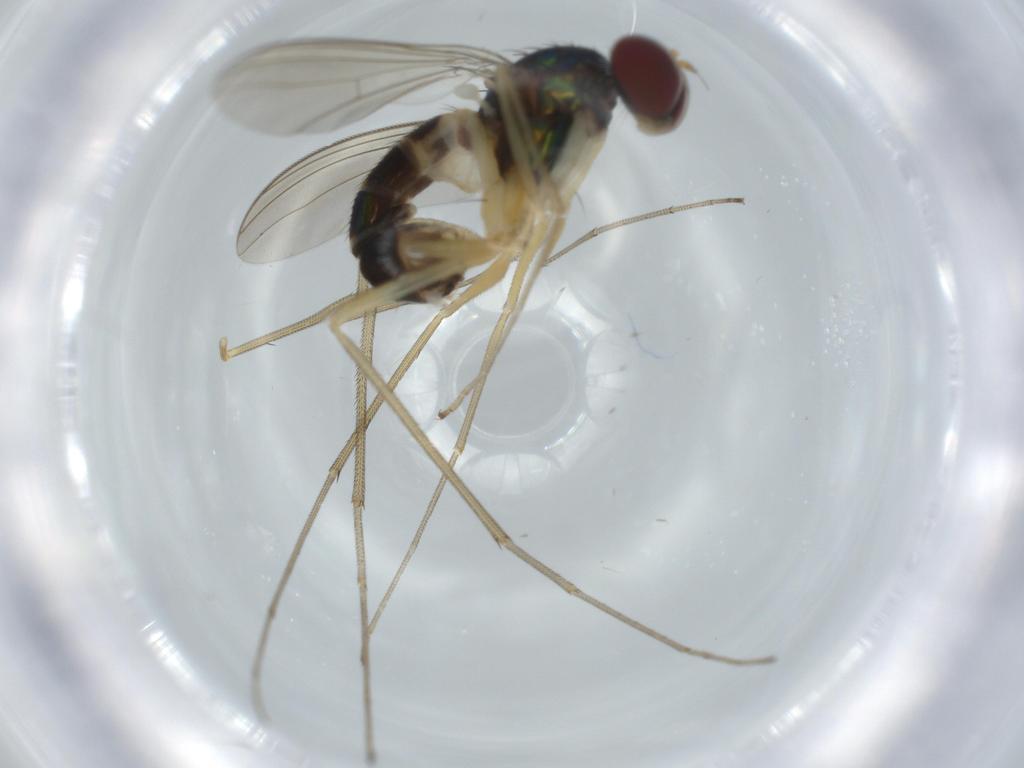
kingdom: Animalia
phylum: Arthropoda
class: Insecta
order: Diptera
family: Dolichopodidae
